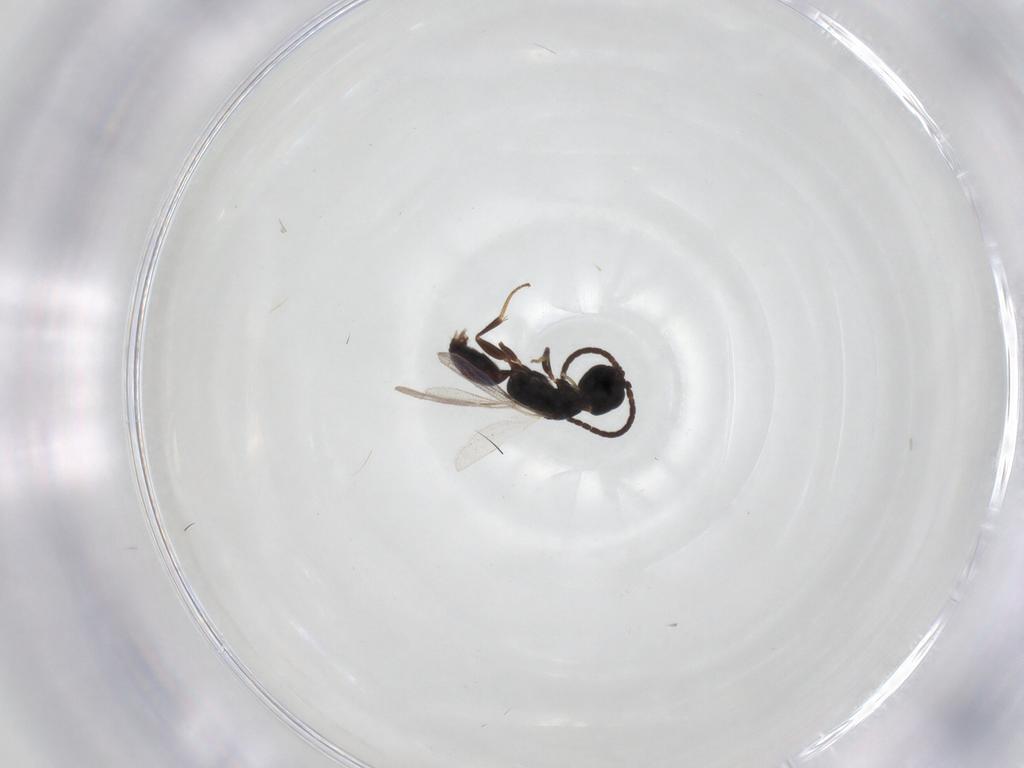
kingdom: Animalia
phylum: Arthropoda
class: Insecta
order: Hymenoptera
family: Bethylidae
